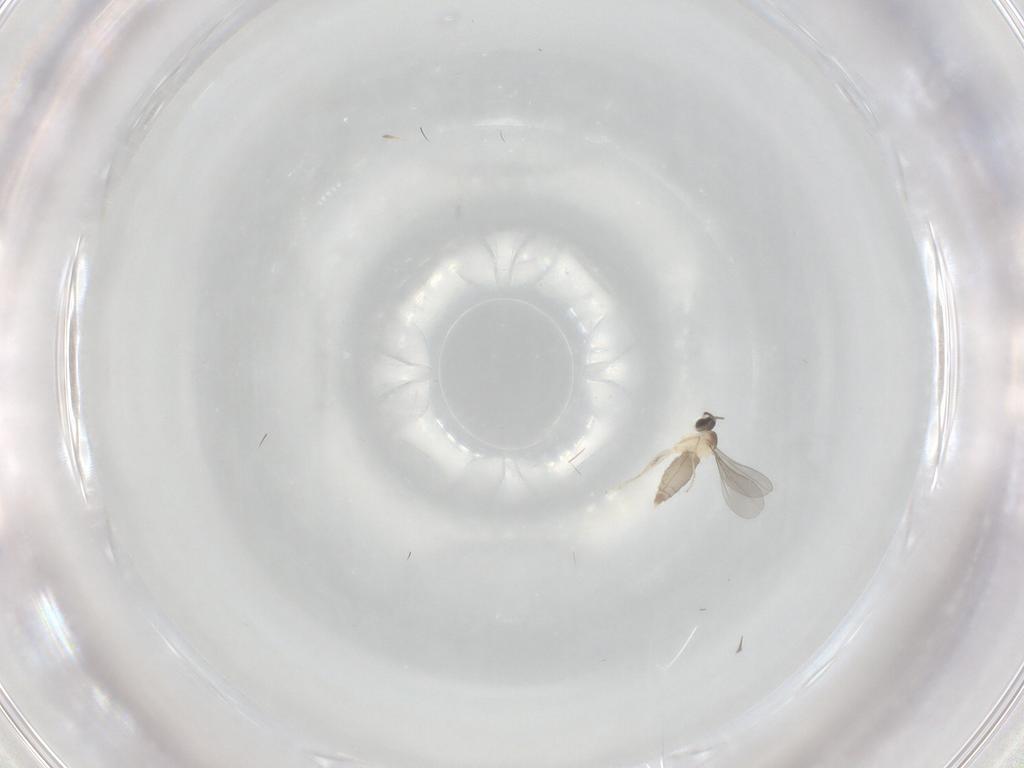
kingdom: Animalia
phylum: Arthropoda
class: Insecta
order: Diptera
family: Cecidomyiidae
